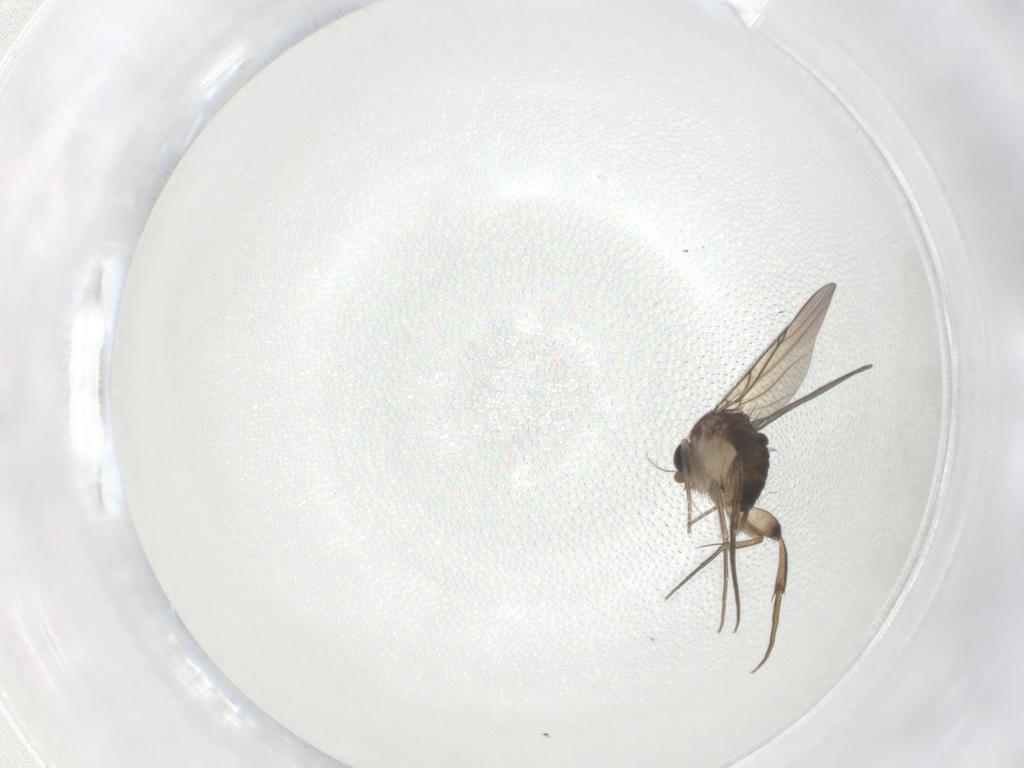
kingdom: Animalia
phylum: Arthropoda
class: Insecta
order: Diptera
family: Phoridae
